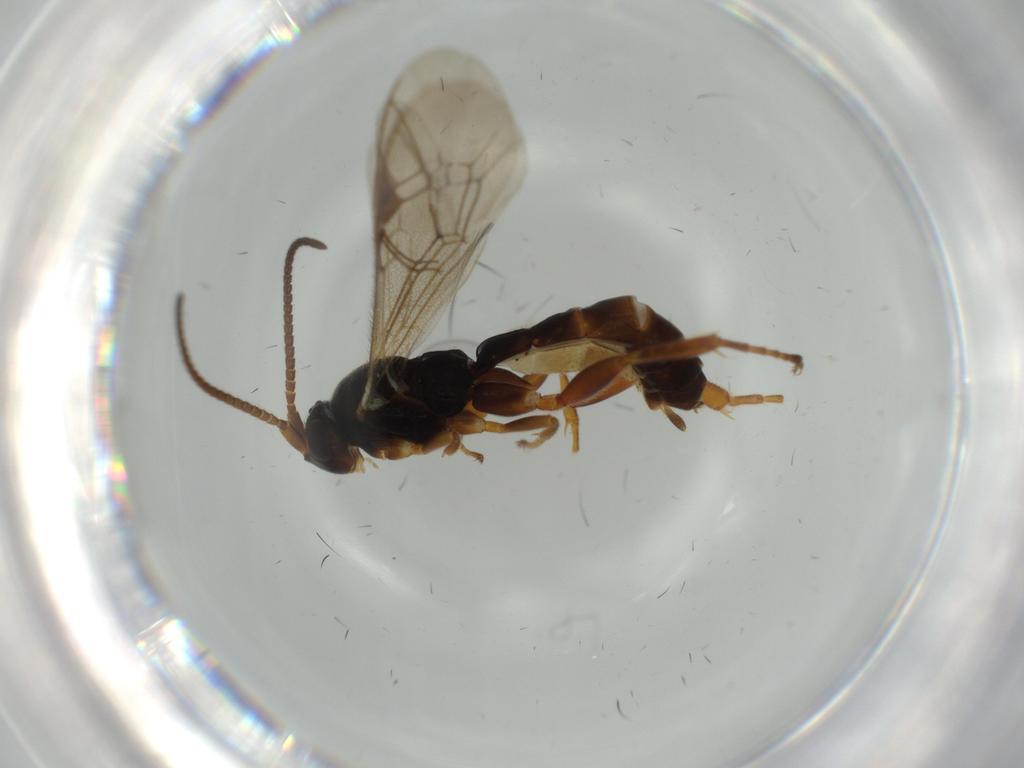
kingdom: Animalia
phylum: Arthropoda
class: Insecta
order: Hymenoptera
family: Ichneumonidae
